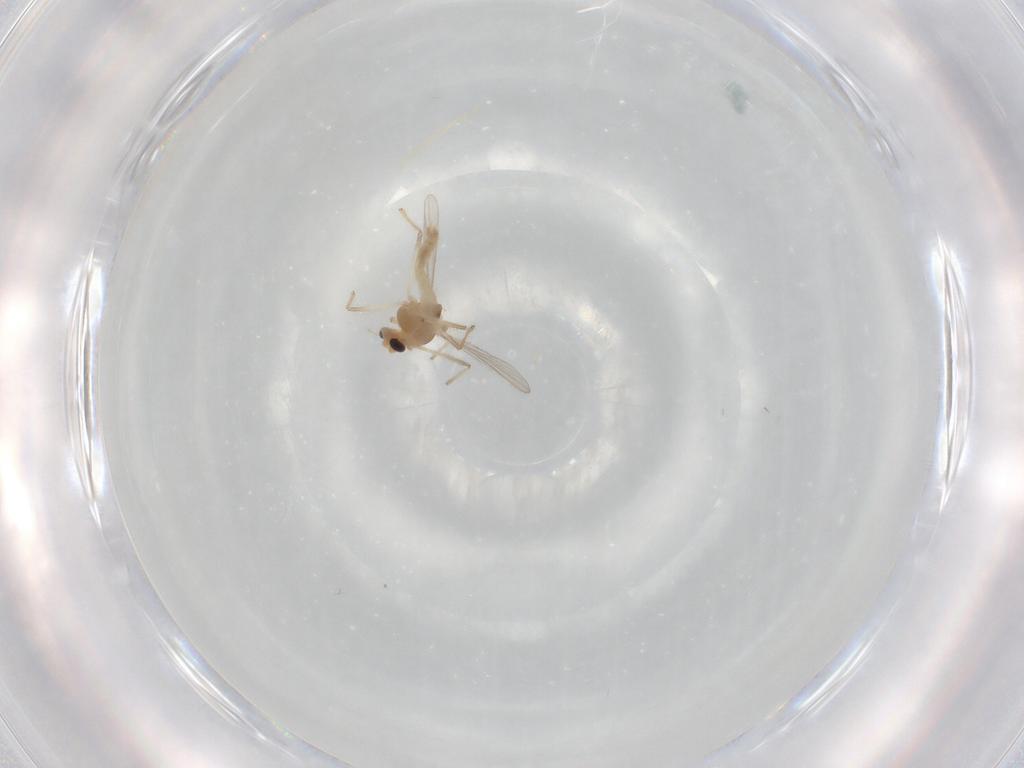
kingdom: Animalia
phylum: Arthropoda
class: Insecta
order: Diptera
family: Chironomidae
